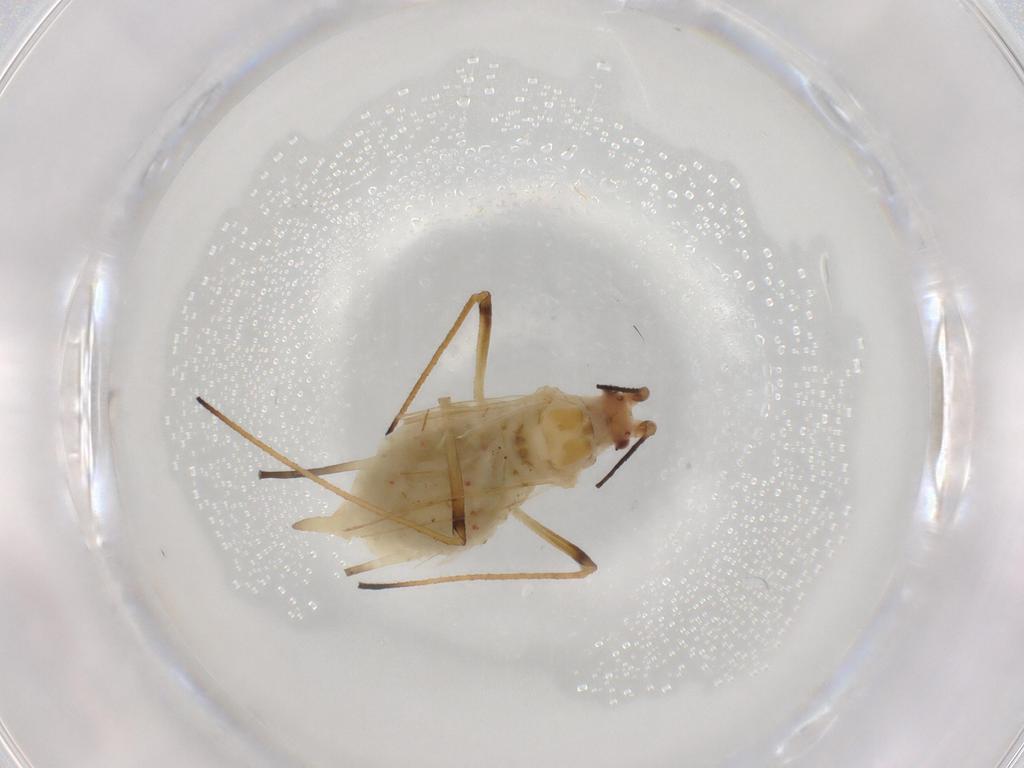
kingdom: Animalia
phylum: Arthropoda
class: Insecta
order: Hemiptera
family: Aphididae
